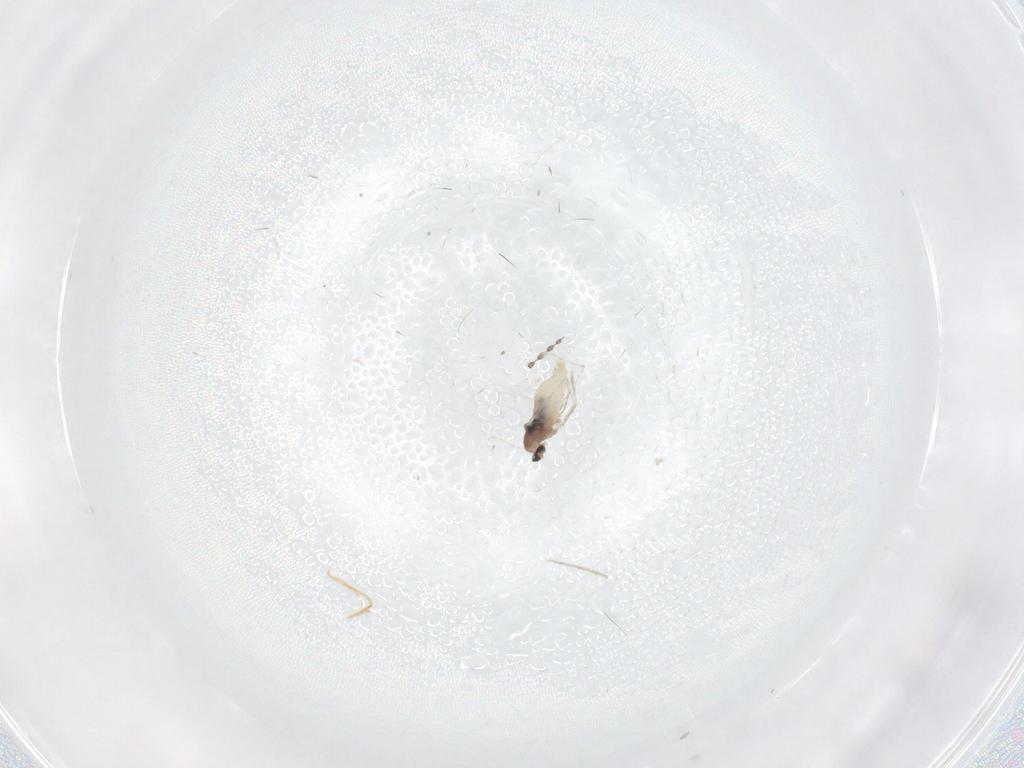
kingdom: Animalia
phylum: Arthropoda
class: Insecta
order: Diptera
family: Cecidomyiidae
